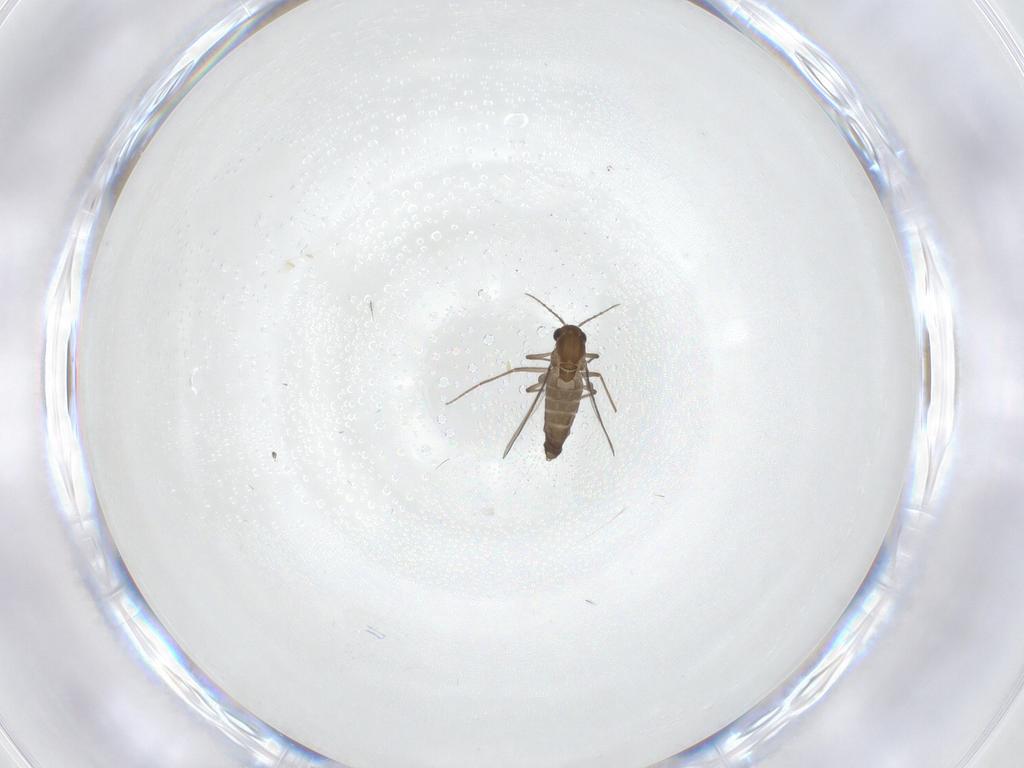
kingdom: Animalia
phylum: Arthropoda
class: Insecta
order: Diptera
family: Chironomidae
